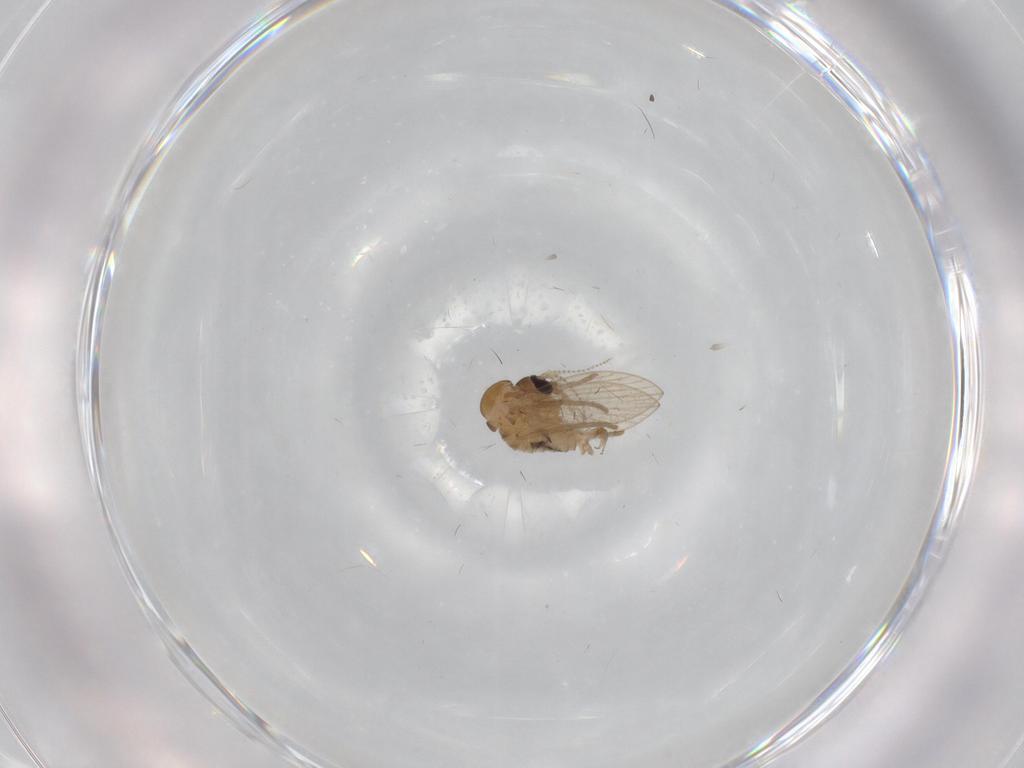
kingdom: Animalia
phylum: Arthropoda
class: Insecta
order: Diptera
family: Psychodidae
